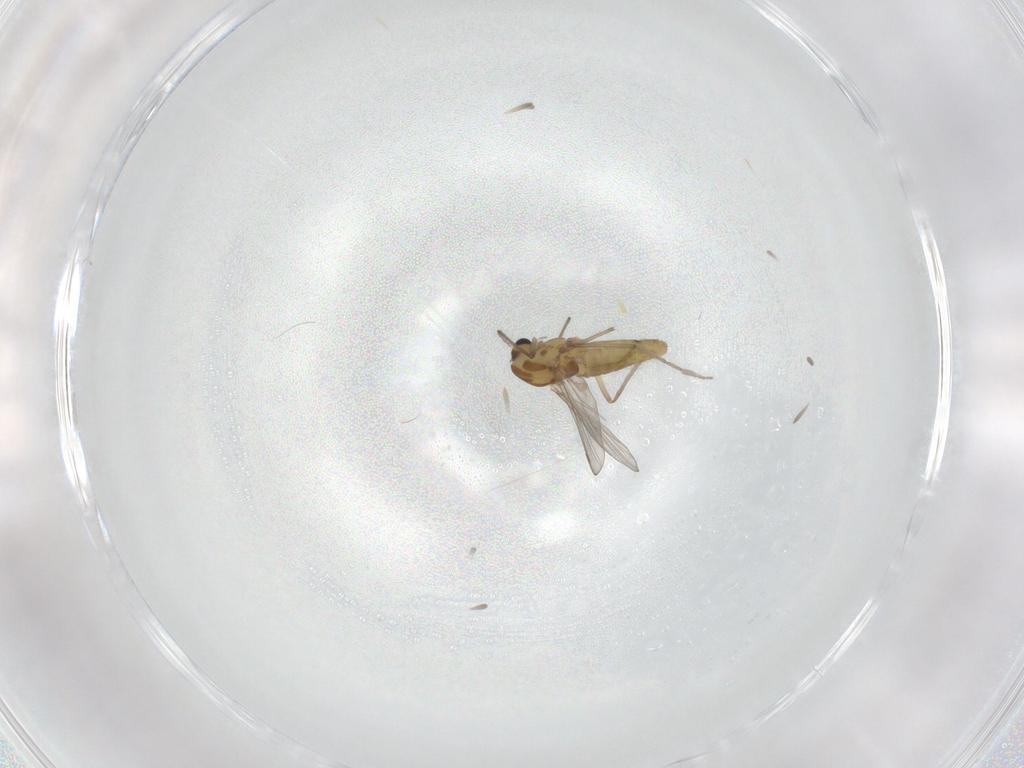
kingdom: Animalia
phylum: Arthropoda
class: Insecta
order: Diptera
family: Chironomidae
